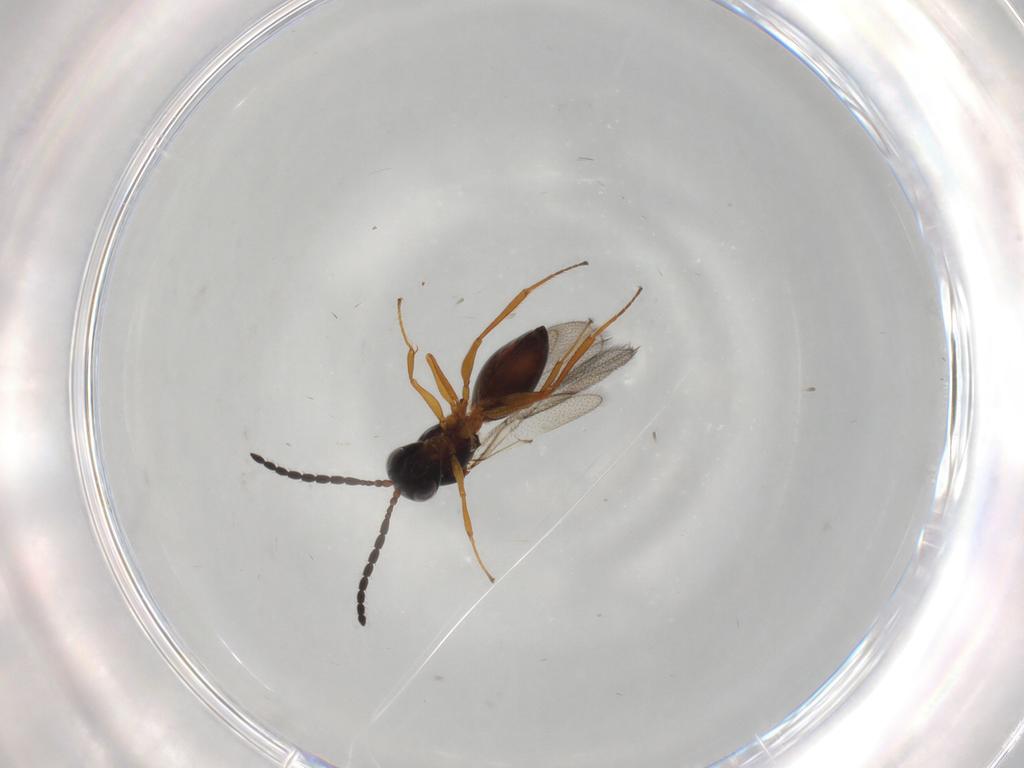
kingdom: Animalia
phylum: Arthropoda
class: Insecta
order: Hymenoptera
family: Figitidae
